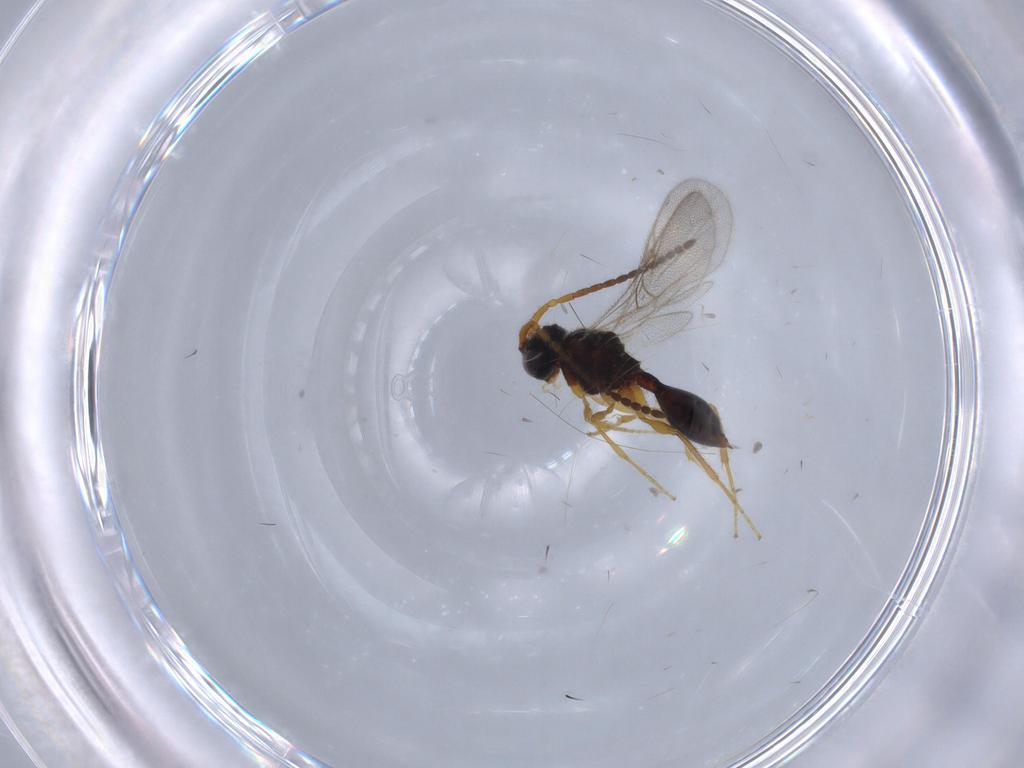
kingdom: Animalia
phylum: Arthropoda
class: Insecta
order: Hymenoptera
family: Diapriidae
